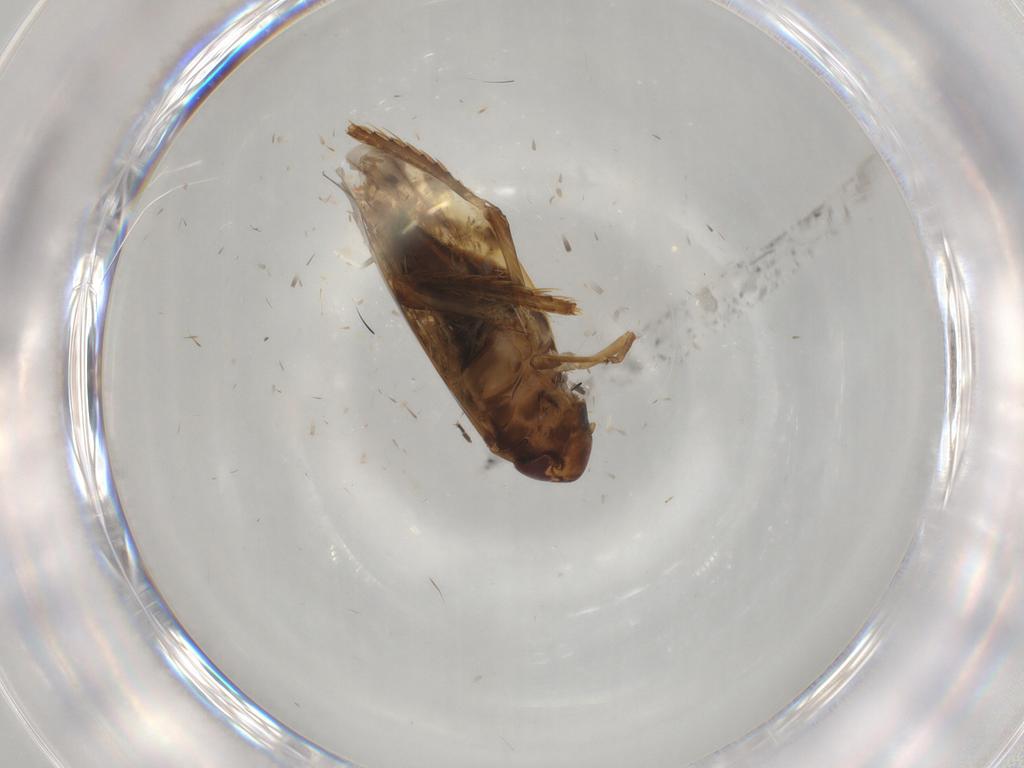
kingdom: Animalia
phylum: Arthropoda
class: Insecta
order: Hemiptera
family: Cicadellidae
